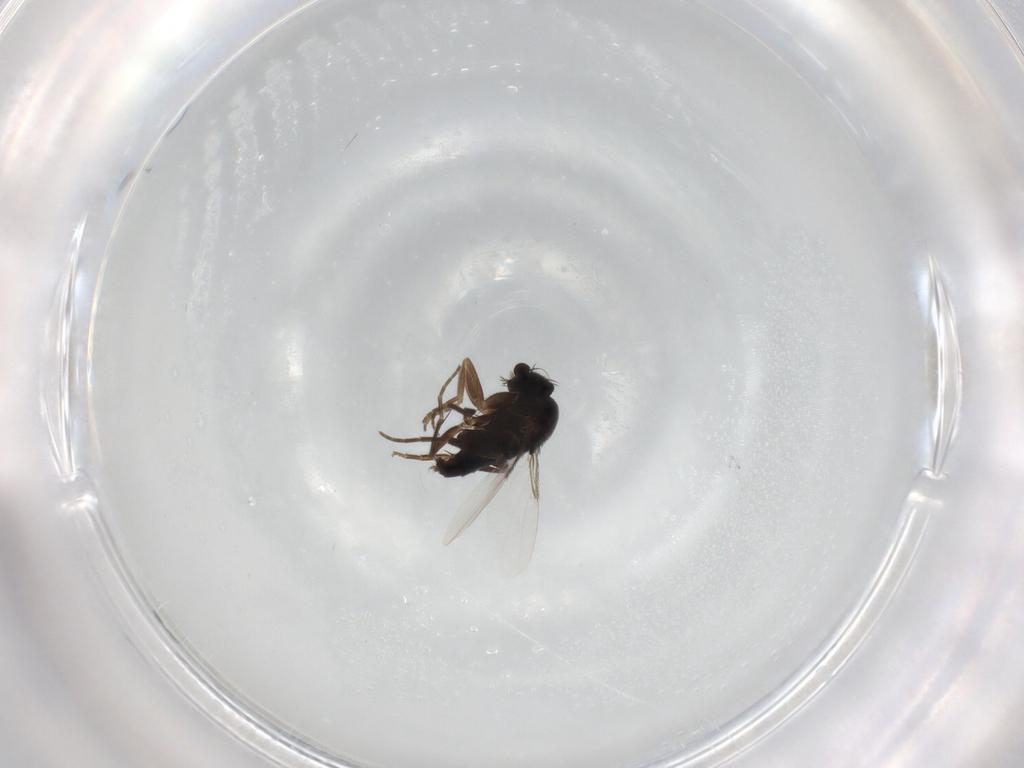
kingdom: Animalia
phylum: Arthropoda
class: Insecta
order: Diptera
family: Phoridae
